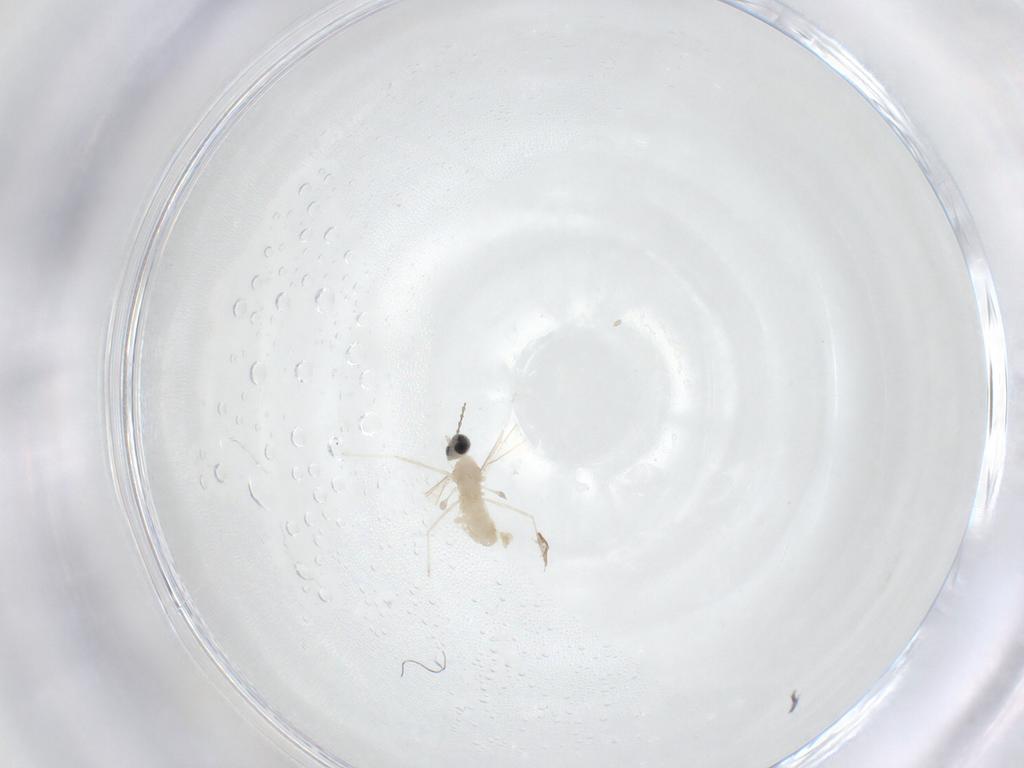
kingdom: Animalia
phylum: Arthropoda
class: Insecta
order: Diptera
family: Cecidomyiidae
